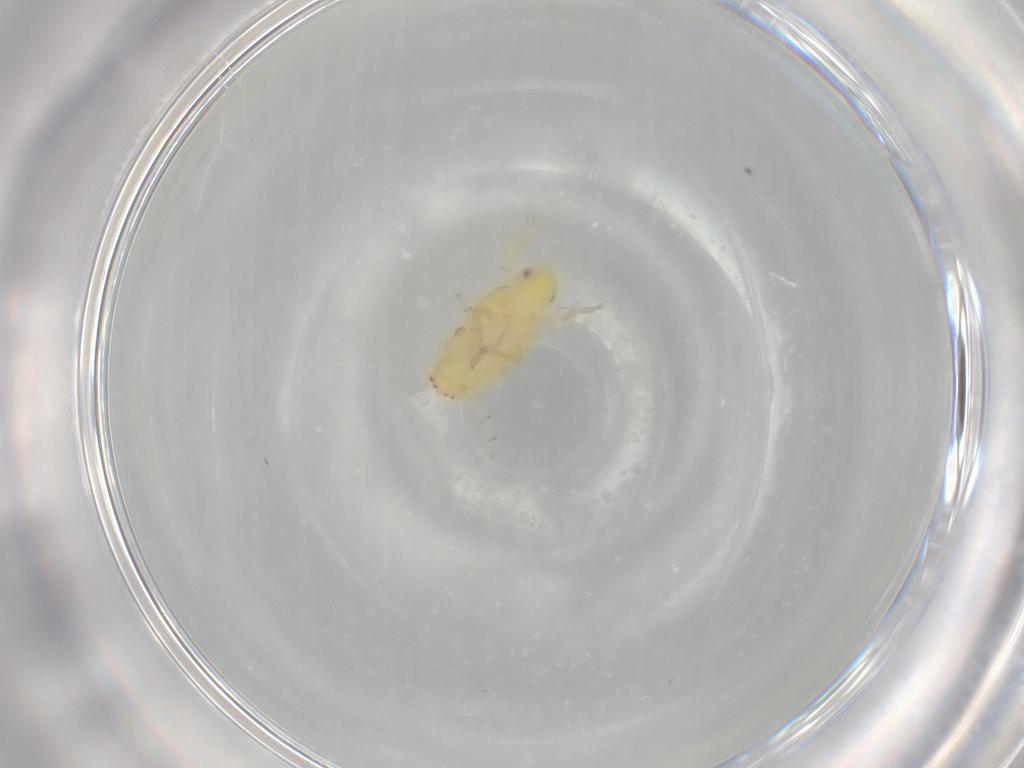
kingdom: Animalia
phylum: Arthropoda
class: Insecta
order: Hemiptera
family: Tropiduchidae
